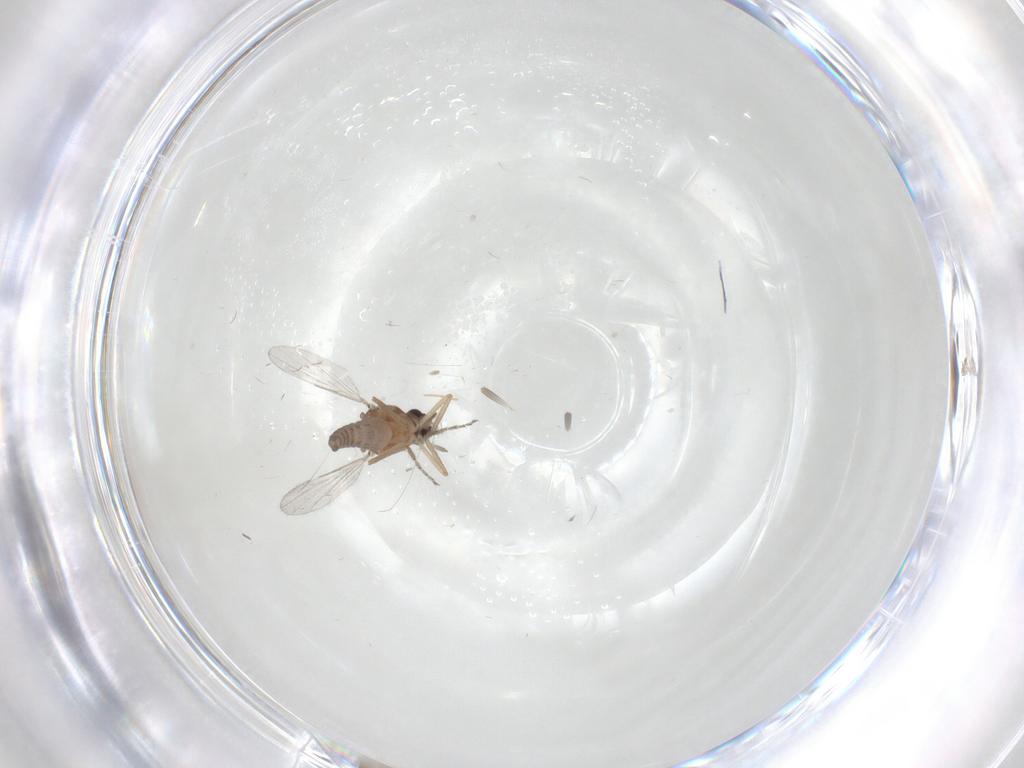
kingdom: Animalia
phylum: Arthropoda
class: Insecta
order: Diptera
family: Ceratopogonidae
